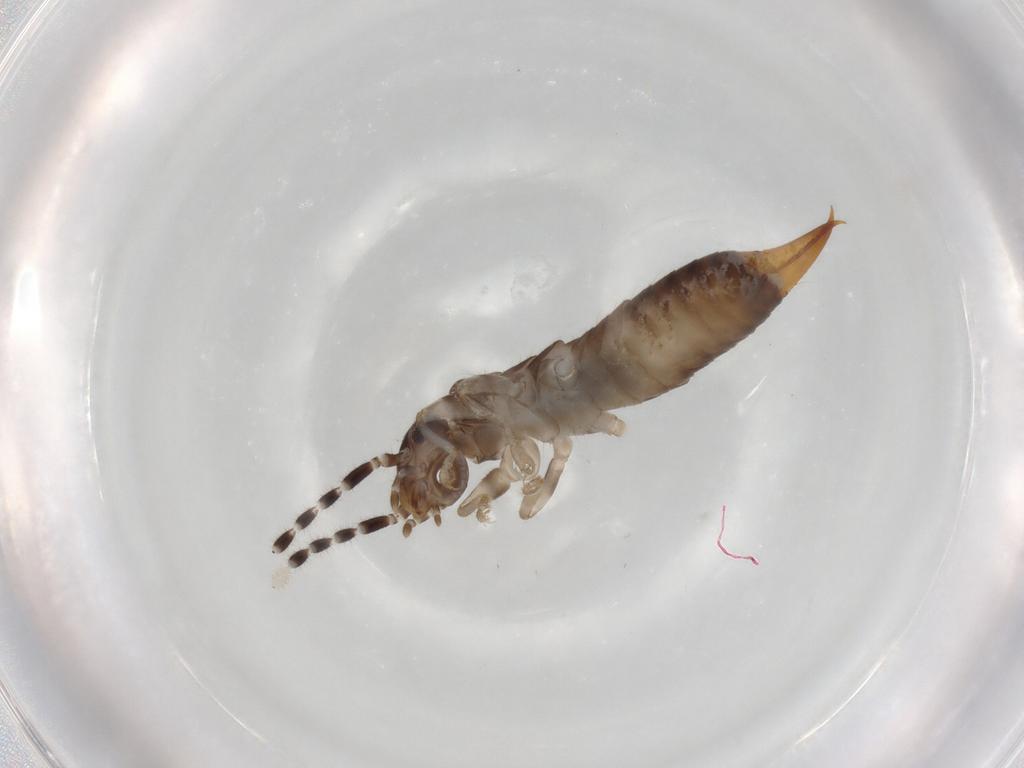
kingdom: Animalia
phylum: Arthropoda
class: Insecta
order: Dermaptera
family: Anisolabididae
